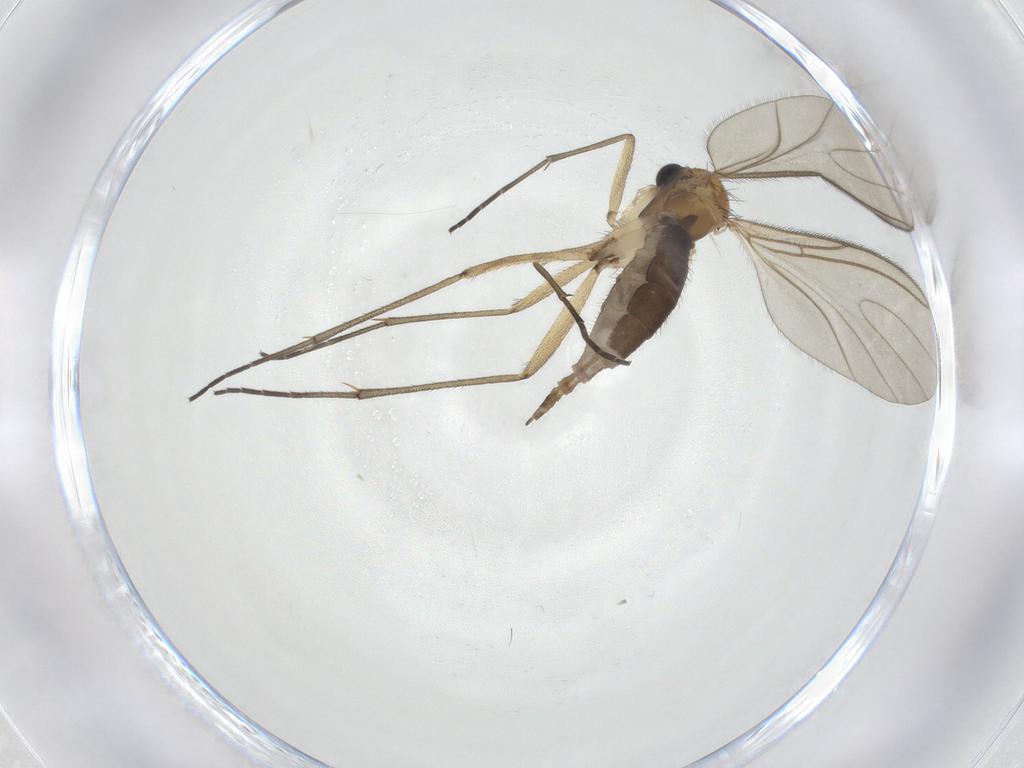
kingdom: Animalia
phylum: Arthropoda
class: Insecta
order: Diptera
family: Sciaridae
